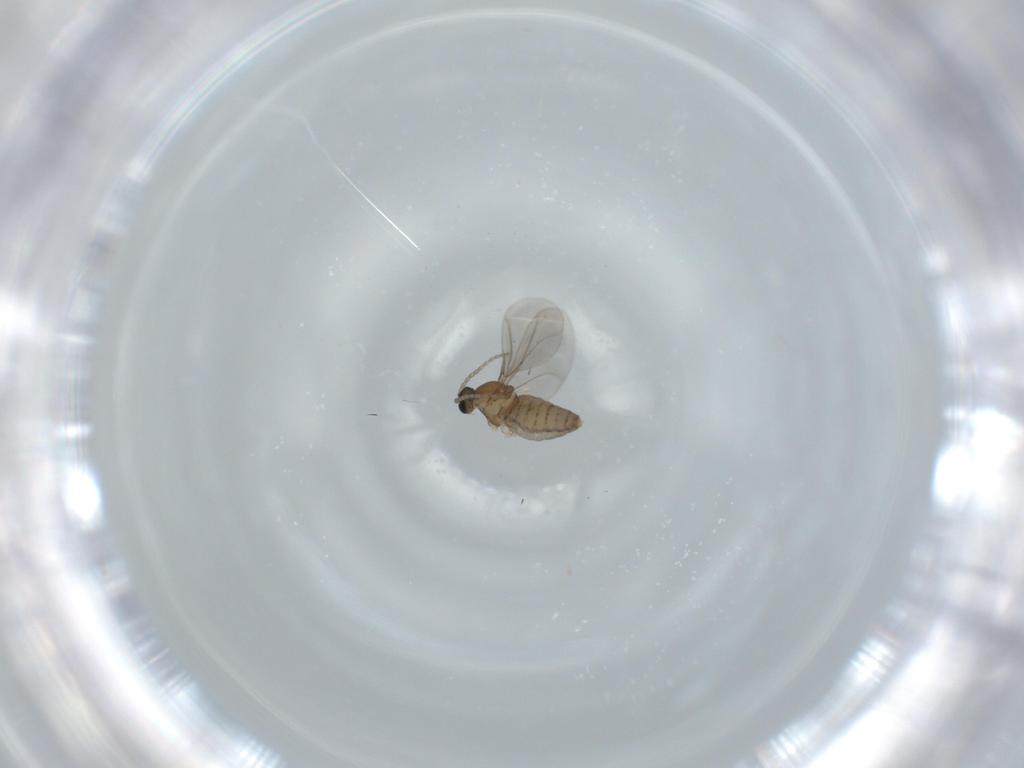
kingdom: Animalia
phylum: Arthropoda
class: Insecta
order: Diptera
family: Cecidomyiidae
